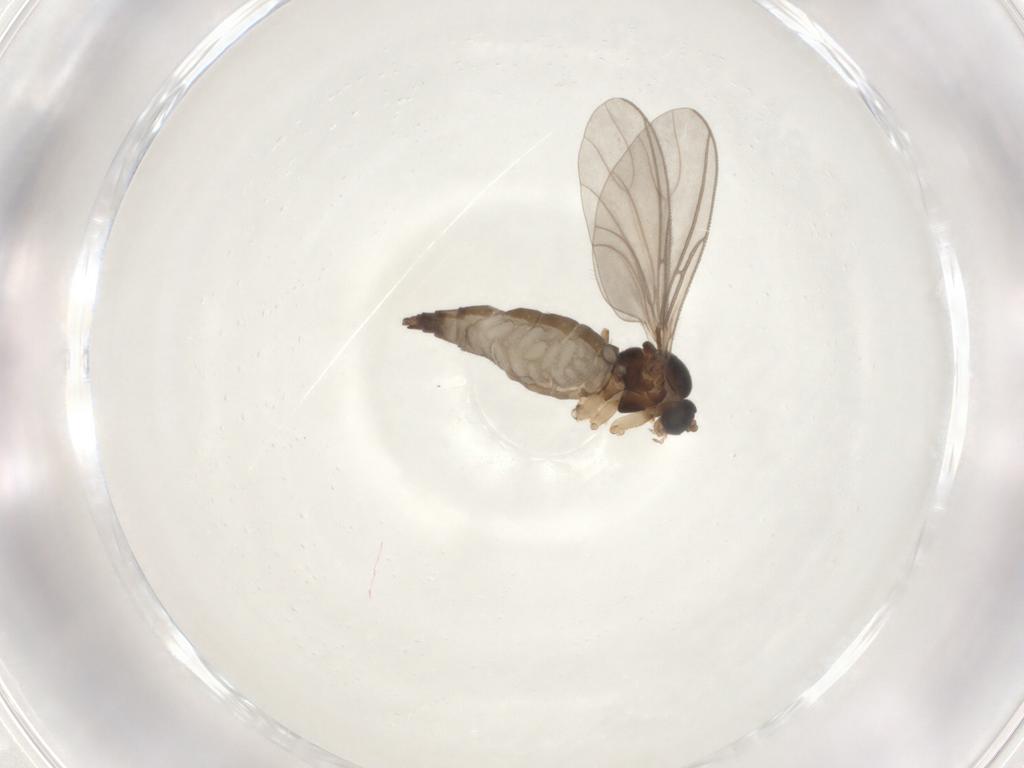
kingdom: Animalia
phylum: Arthropoda
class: Insecta
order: Diptera
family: Sciaridae
